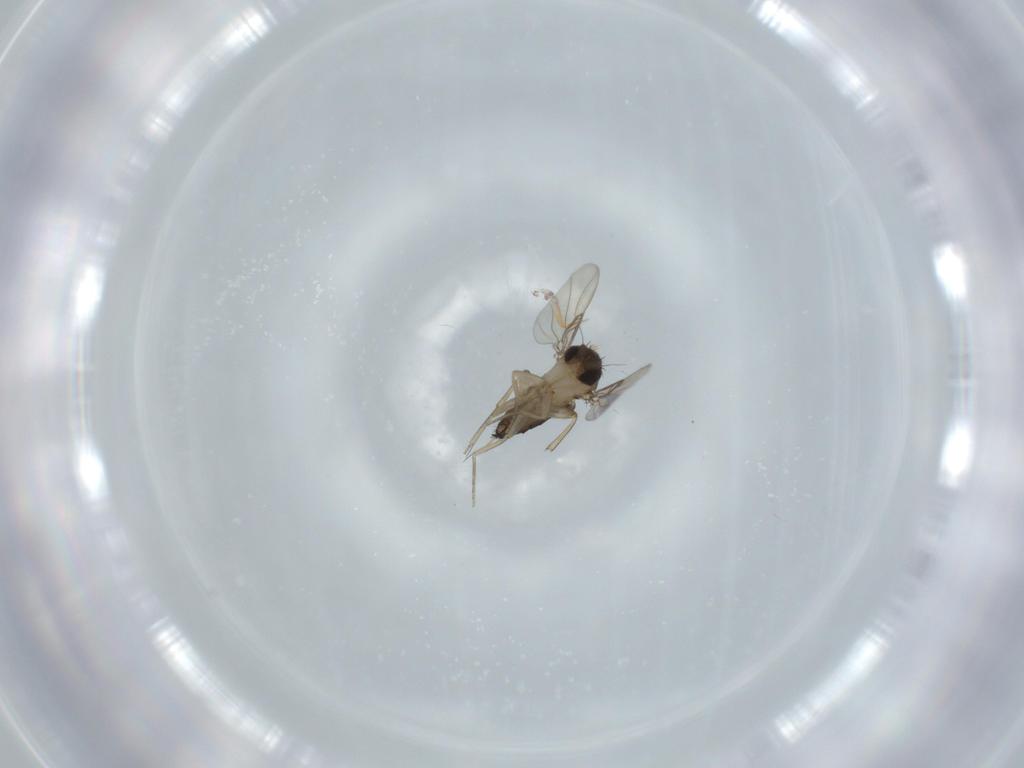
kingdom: Animalia
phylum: Arthropoda
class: Insecta
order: Diptera
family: Phoridae
